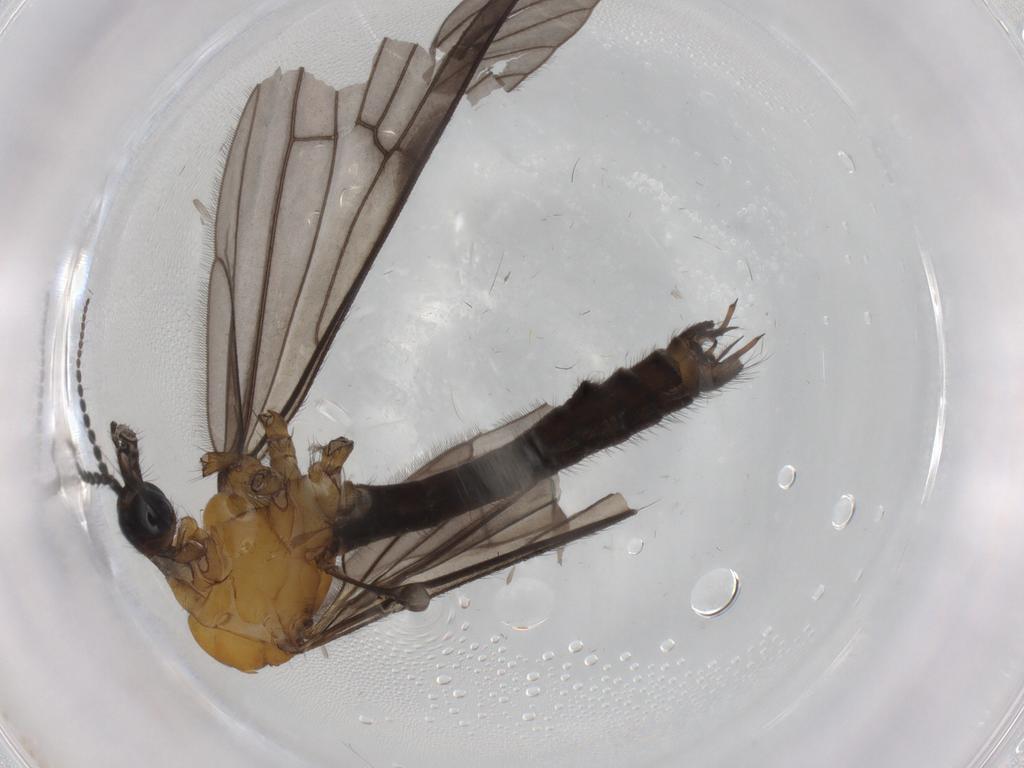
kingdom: Animalia
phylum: Arthropoda
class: Insecta
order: Diptera
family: Limoniidae
